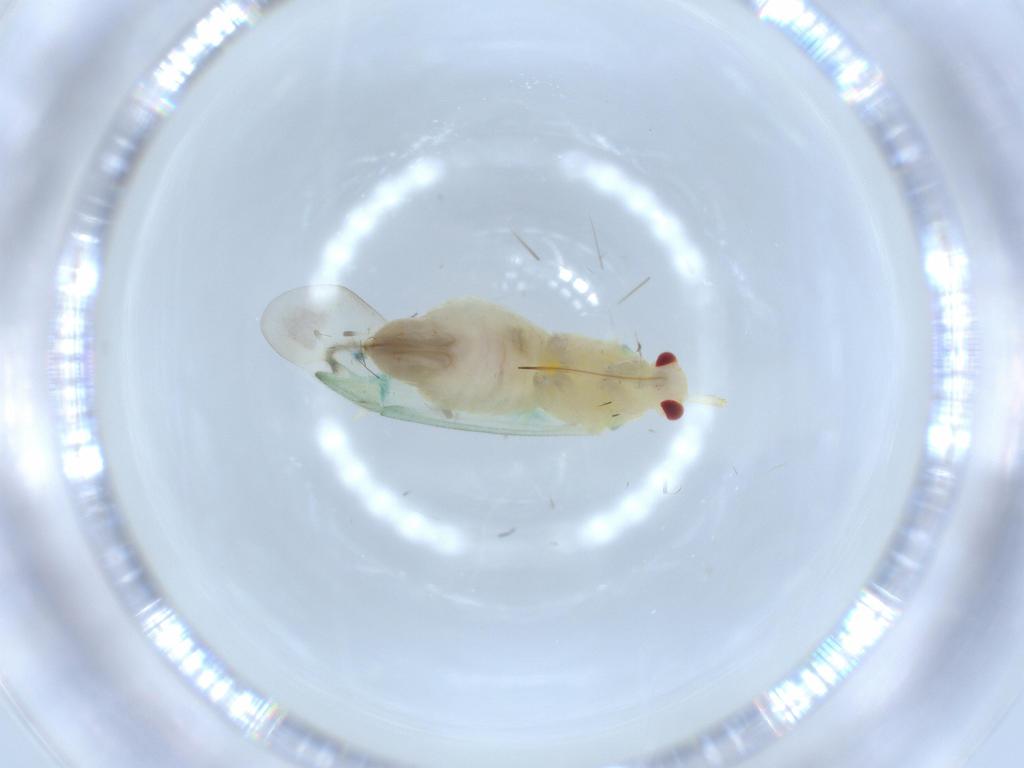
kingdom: Animalia
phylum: Arthropoda
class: Insecta
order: Hemiptera
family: Miridae
